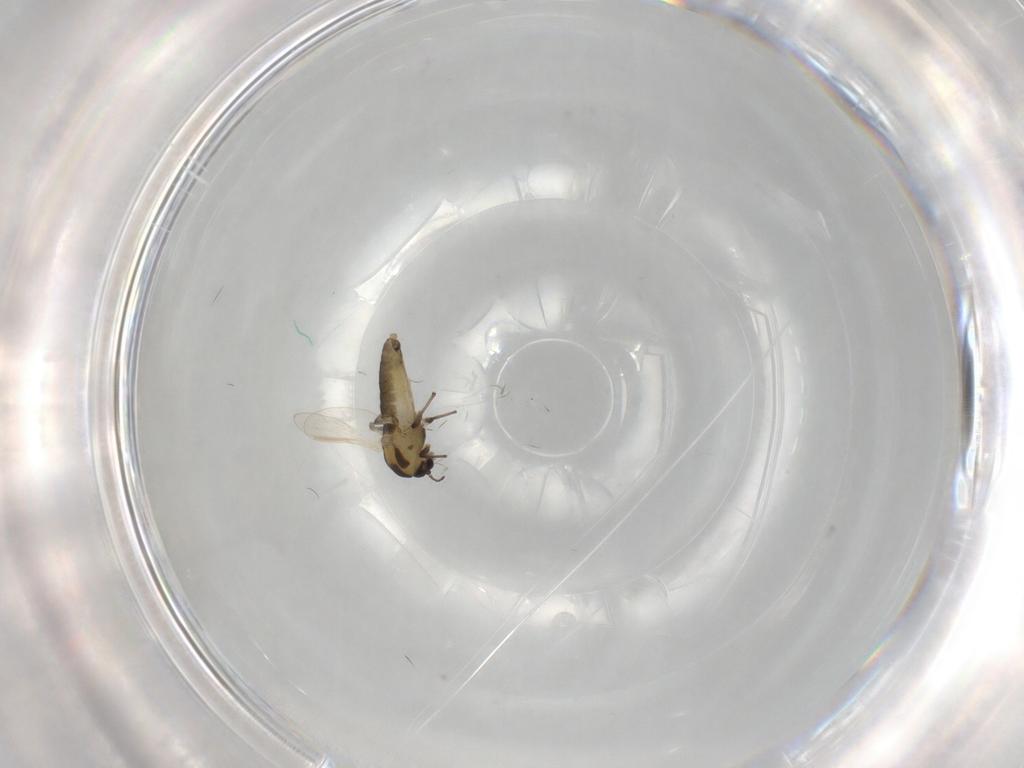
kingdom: Animalia
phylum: Arthropoda
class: Insecta
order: Diptera
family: Chironomidae
